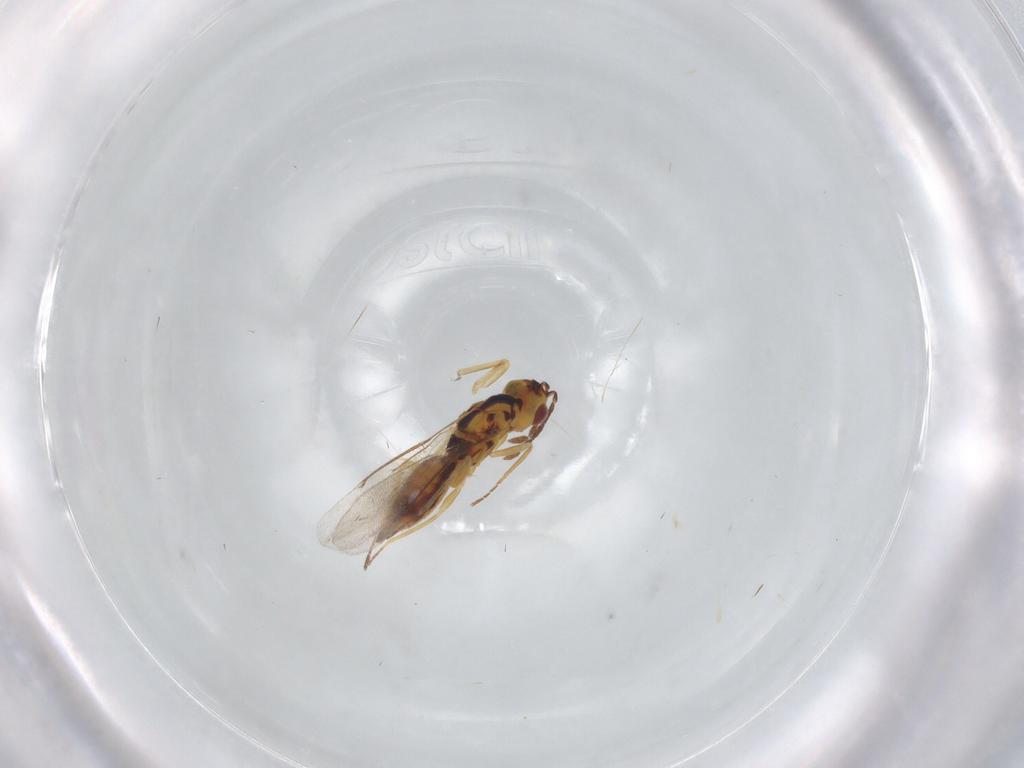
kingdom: Animalia
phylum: Arthropoda
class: Insecta
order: Hymenoptera
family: Eulophidae
